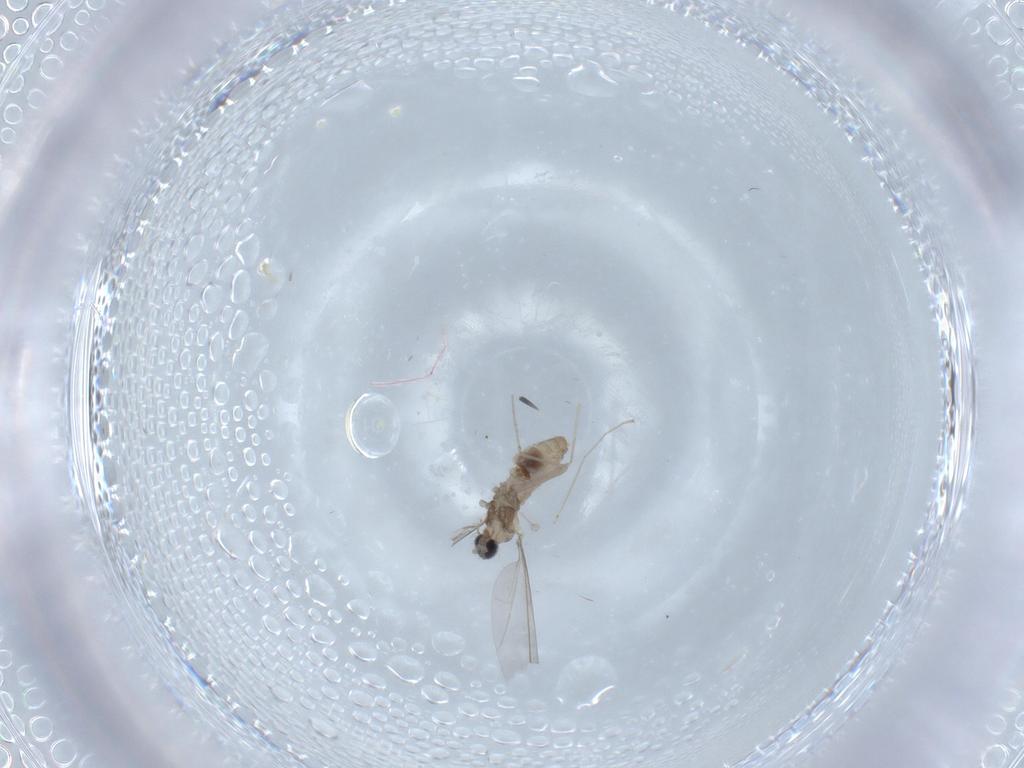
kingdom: Animalia
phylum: Arthropoda
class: Insecta
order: Diptera
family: Cecidomyiidae
